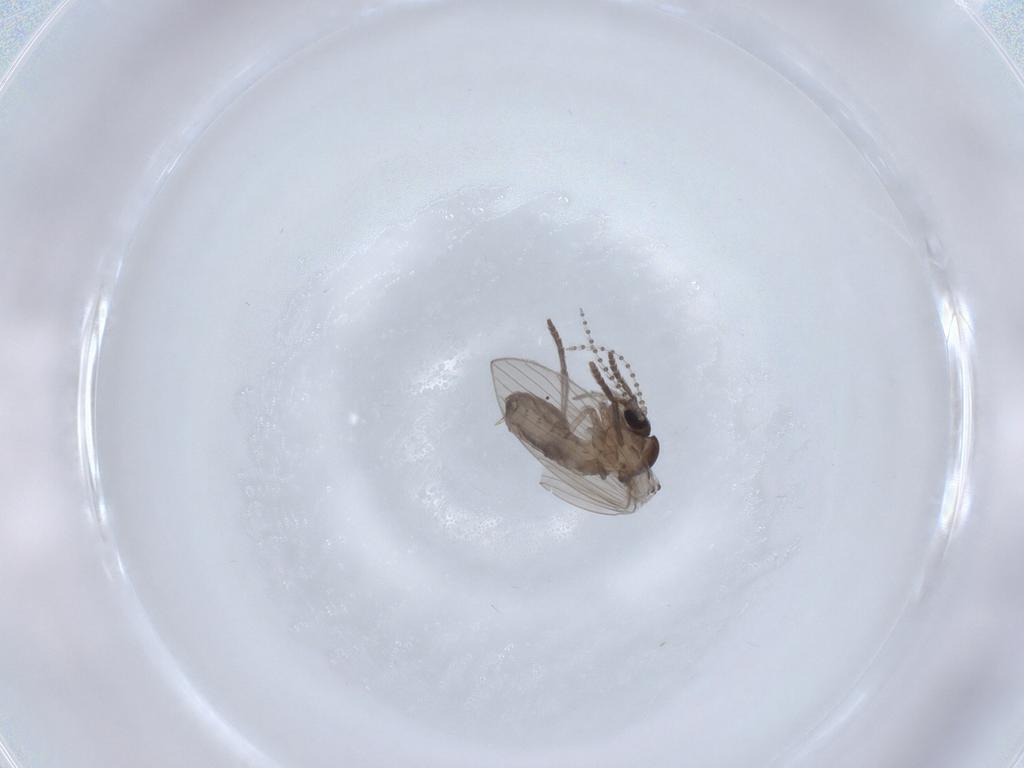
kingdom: Animalia
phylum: Arthropoda
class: Insecta
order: Diptera
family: Psychodidae
